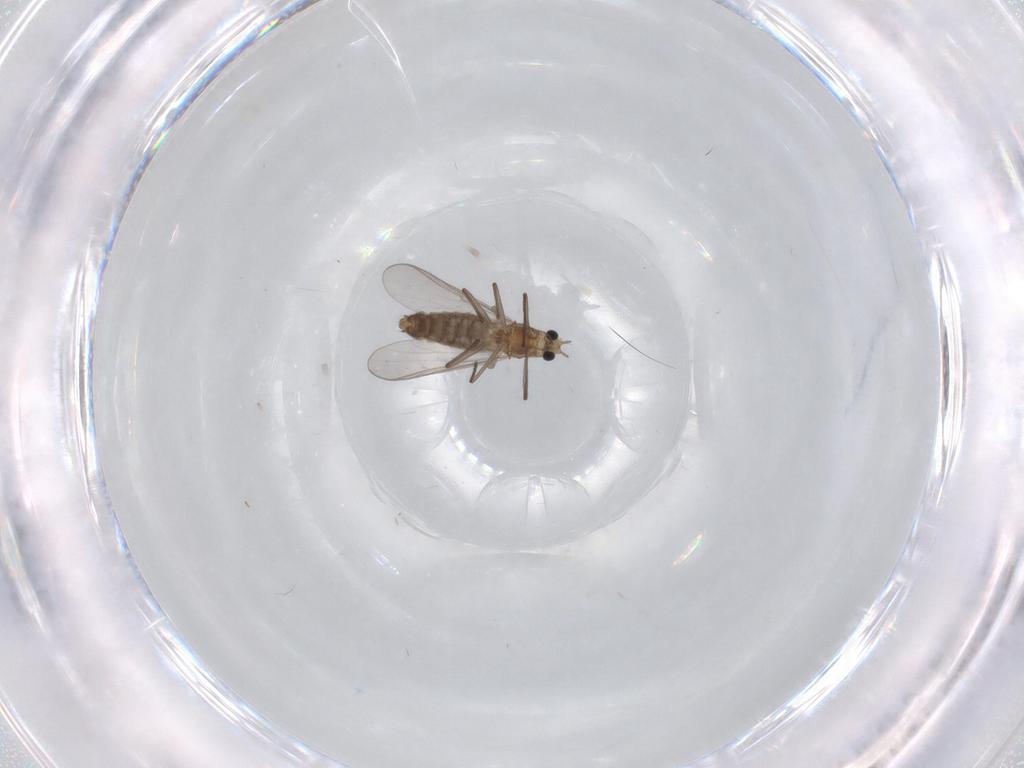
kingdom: Animalia
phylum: Arthropoda
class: Insecta
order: Diptera
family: Chironomidae
